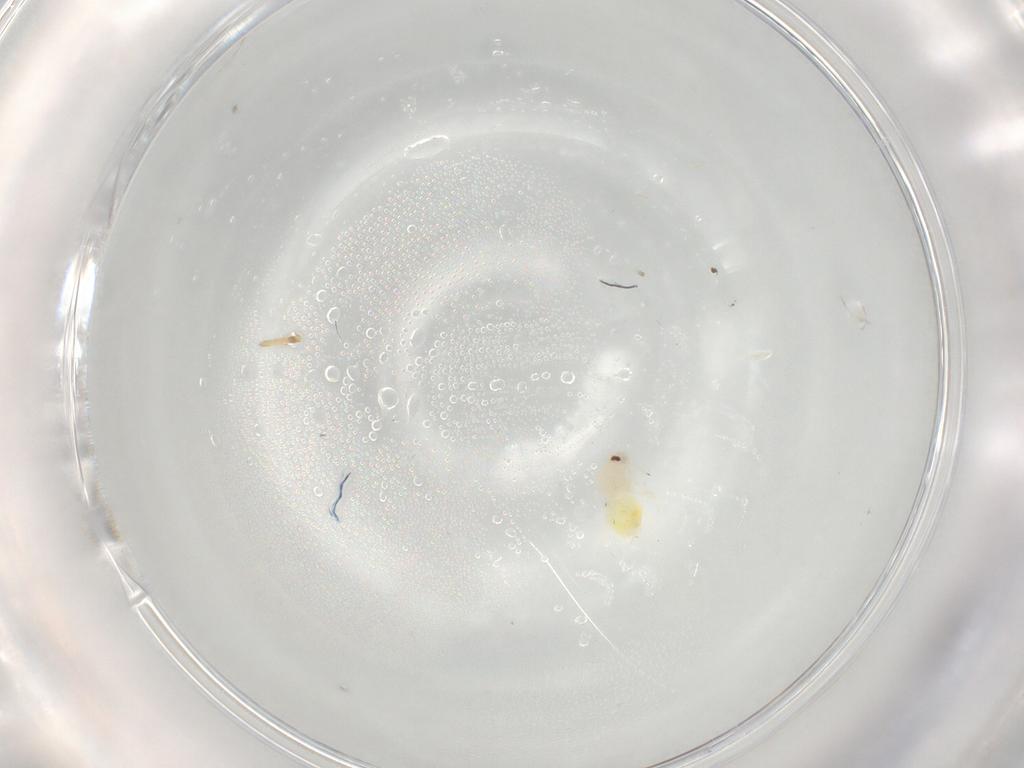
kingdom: Animalia
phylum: Arthropoda
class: Insecta
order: Hemiptera
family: Aleyrodidae
